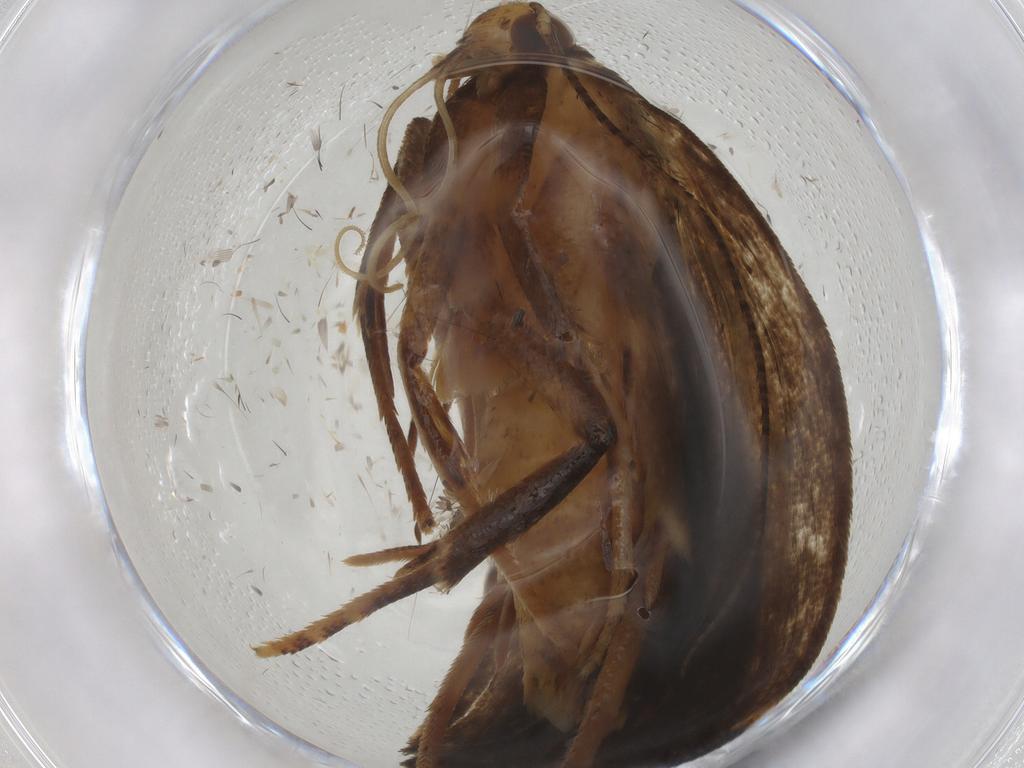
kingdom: Animalia
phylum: Arthropoda
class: Insecta
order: Lepidoptera
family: Gelechiidae
